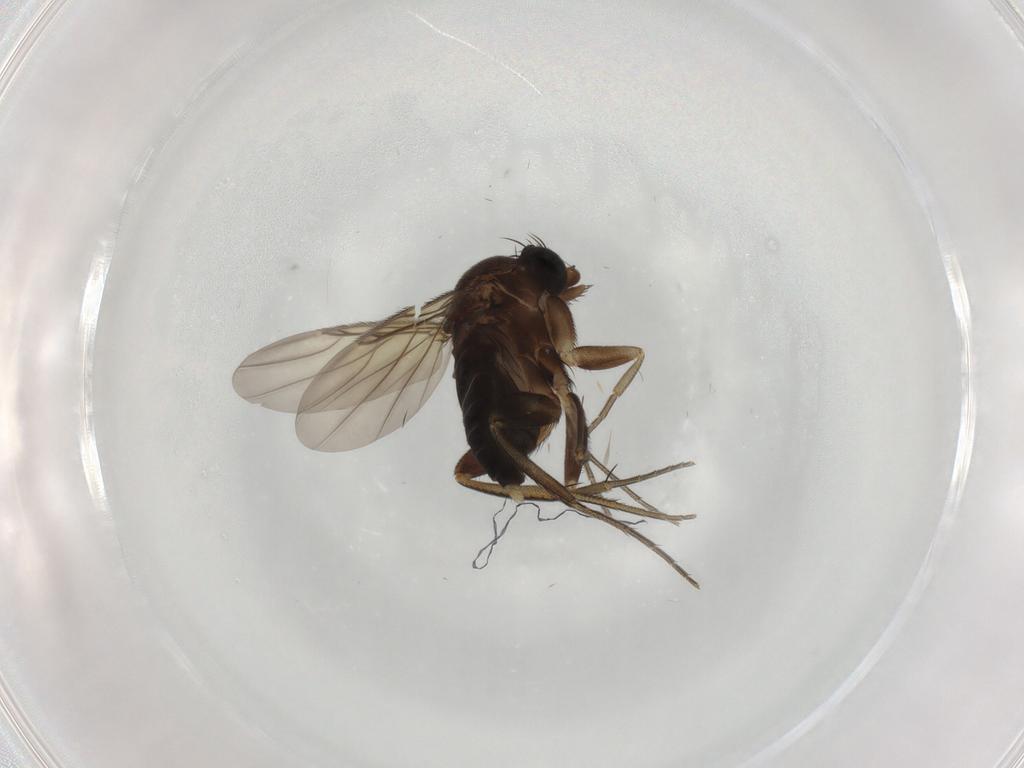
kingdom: Animalia
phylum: Arthropoda
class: Insecta
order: Diptera
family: Phoridae
